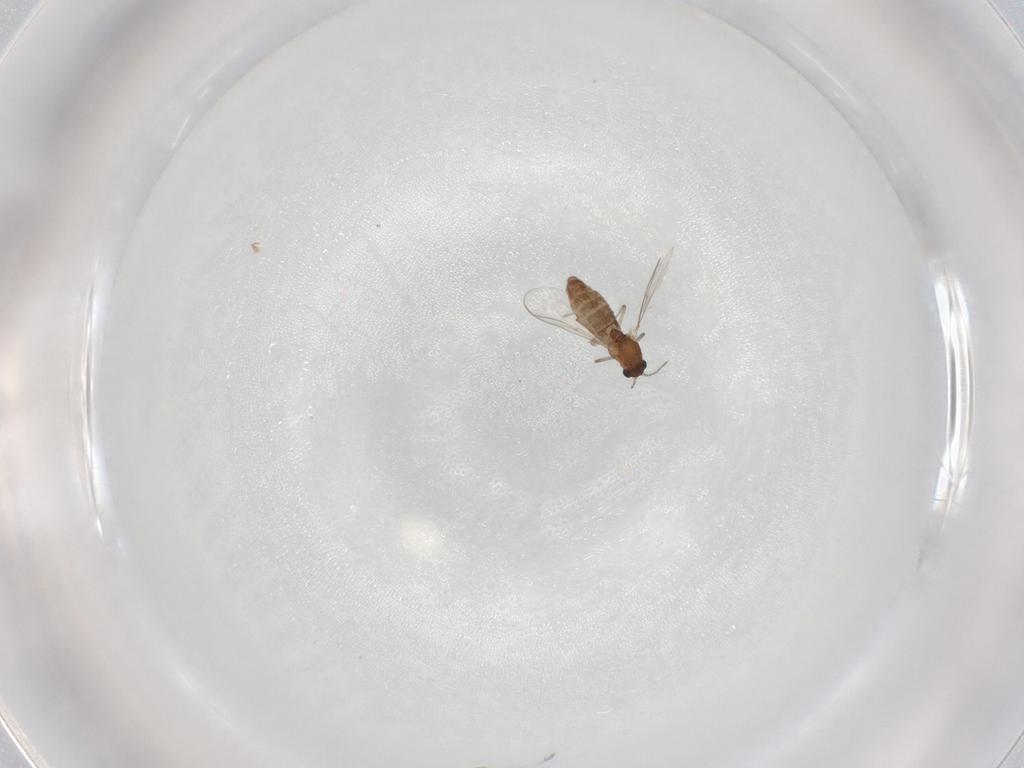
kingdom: Animalia
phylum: Arthropoda
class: Insecta
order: Diptera
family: Chironomidae
